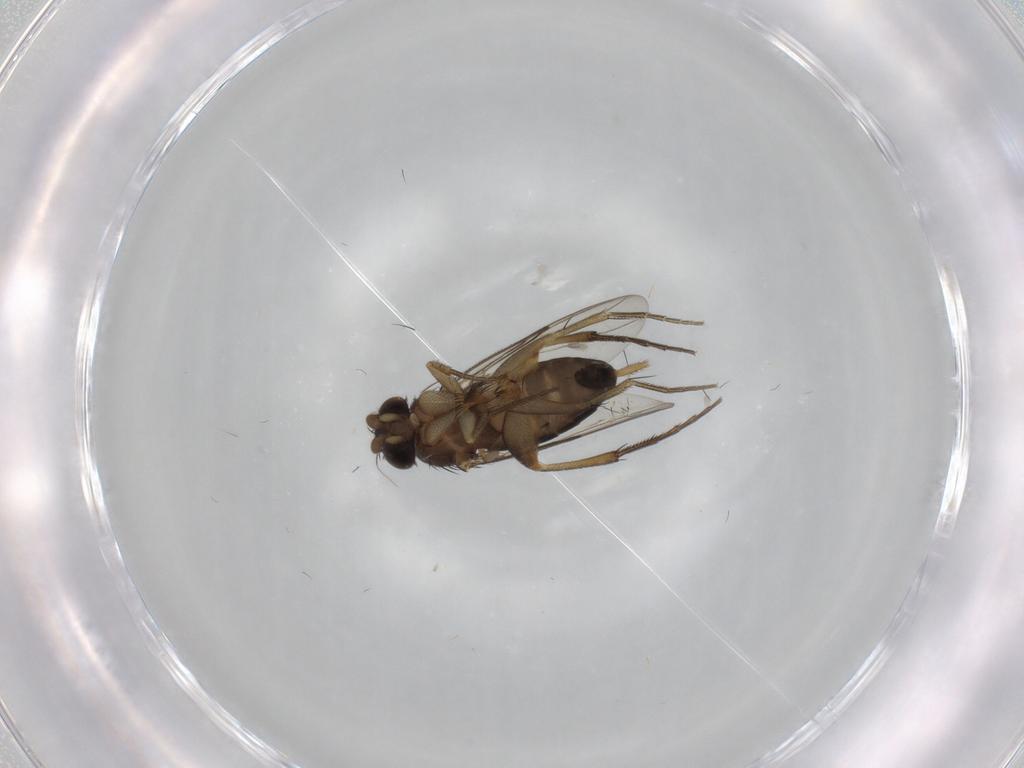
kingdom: Animalia
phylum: Arthropoda
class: Insecta
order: Diptera
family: Phoridae
